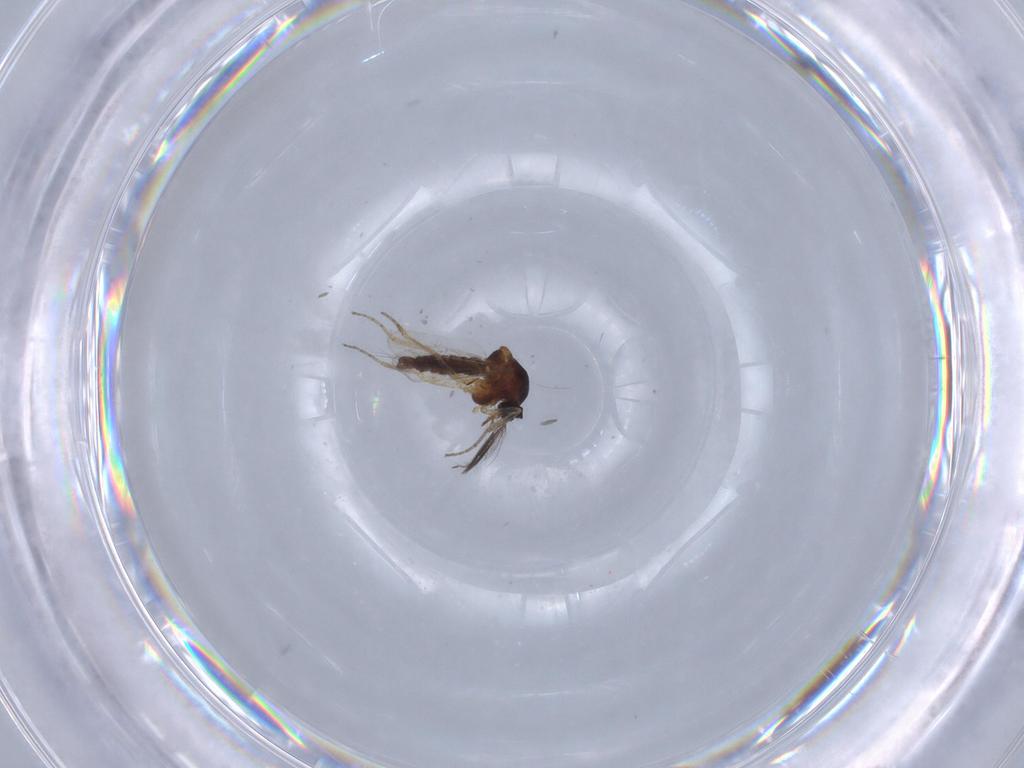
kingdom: Animalia
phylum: Arthropoda
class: Insecta
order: Diptera
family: Ceratopogonidae
